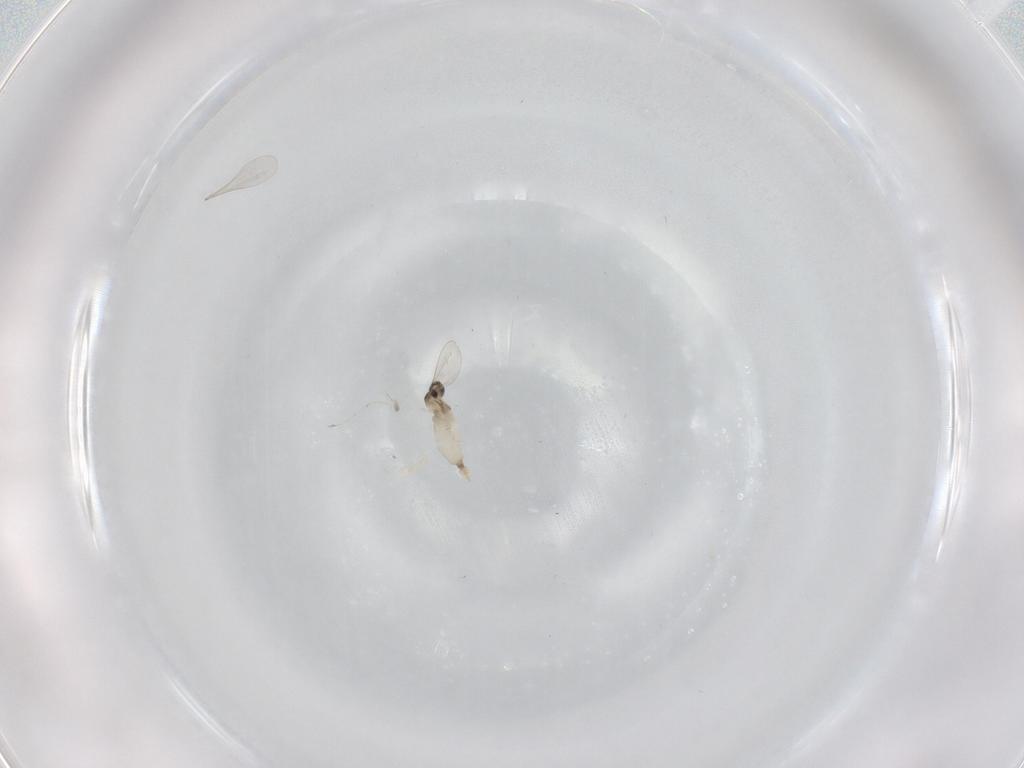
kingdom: Animalia
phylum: Arthropoda
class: Insecta
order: Diptera
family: Cecidomyiidae
